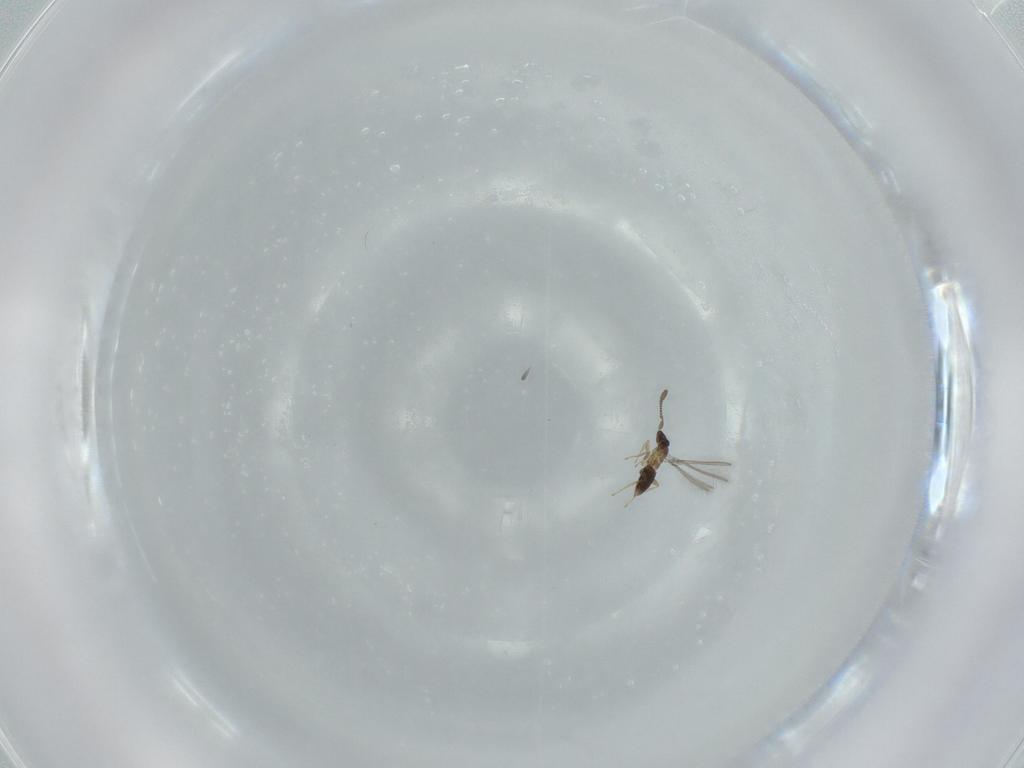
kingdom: Animalia
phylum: Arthropoda
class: Insecta
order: Hymenoptera
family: Mymaridae
